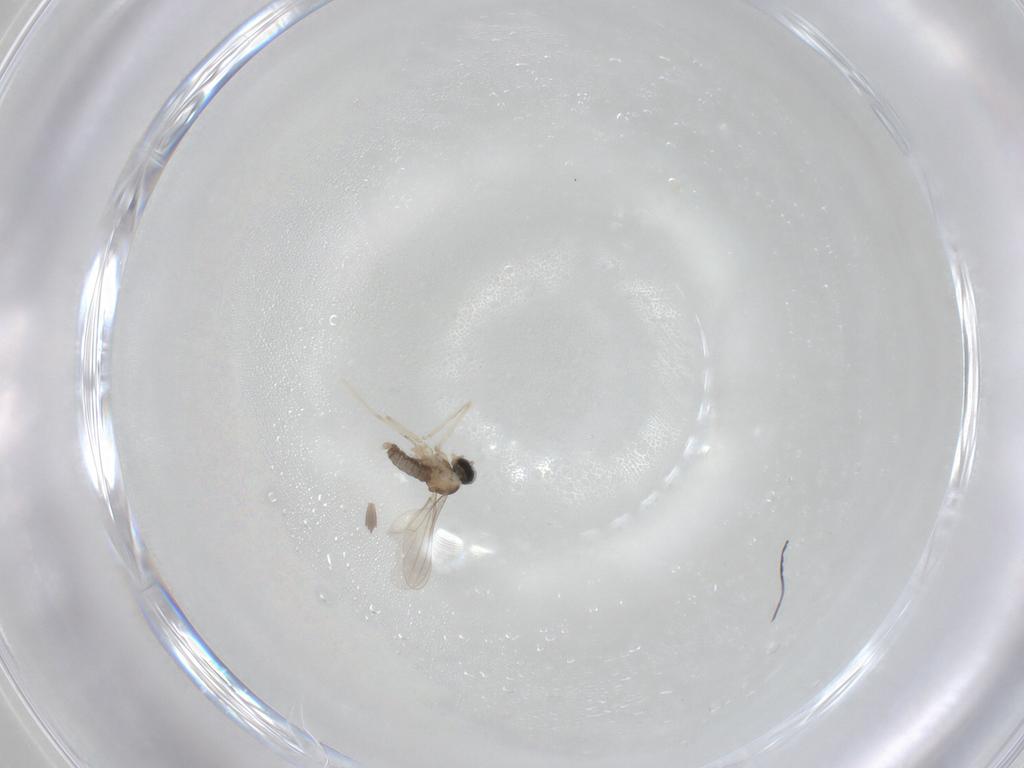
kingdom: Animalia
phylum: Arthropoda
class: Insecta
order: Diptera
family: Cecidomyiidae
